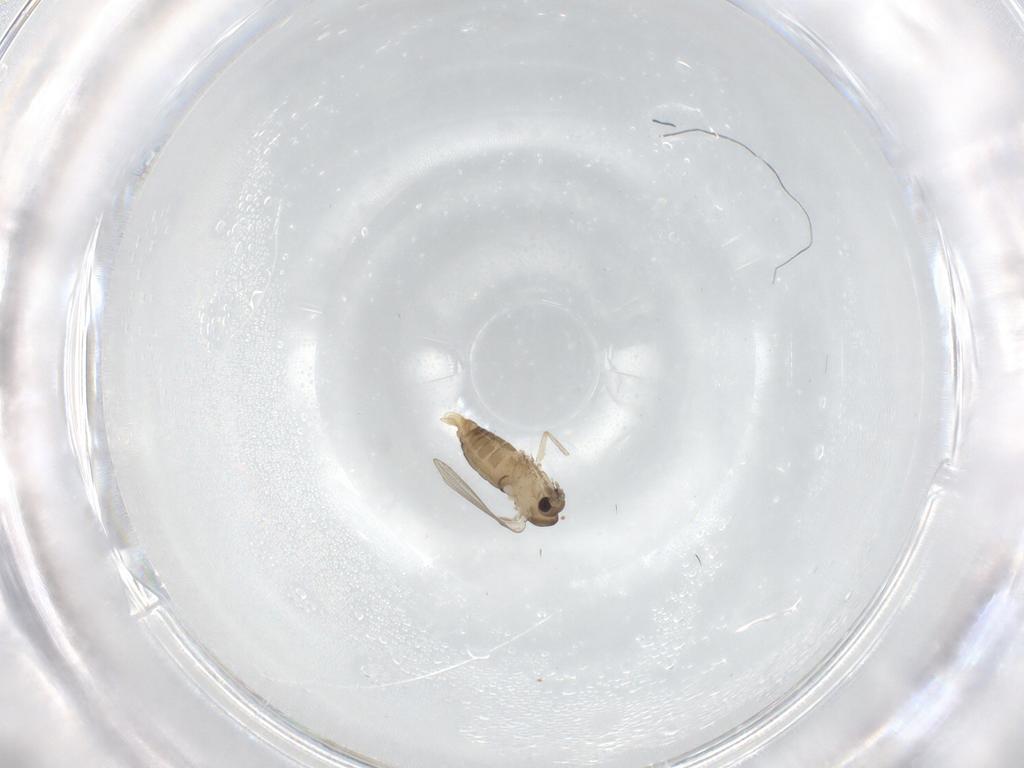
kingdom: Animalia
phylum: Arthropoda
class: Insecta
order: Diptera
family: Psychodidae
